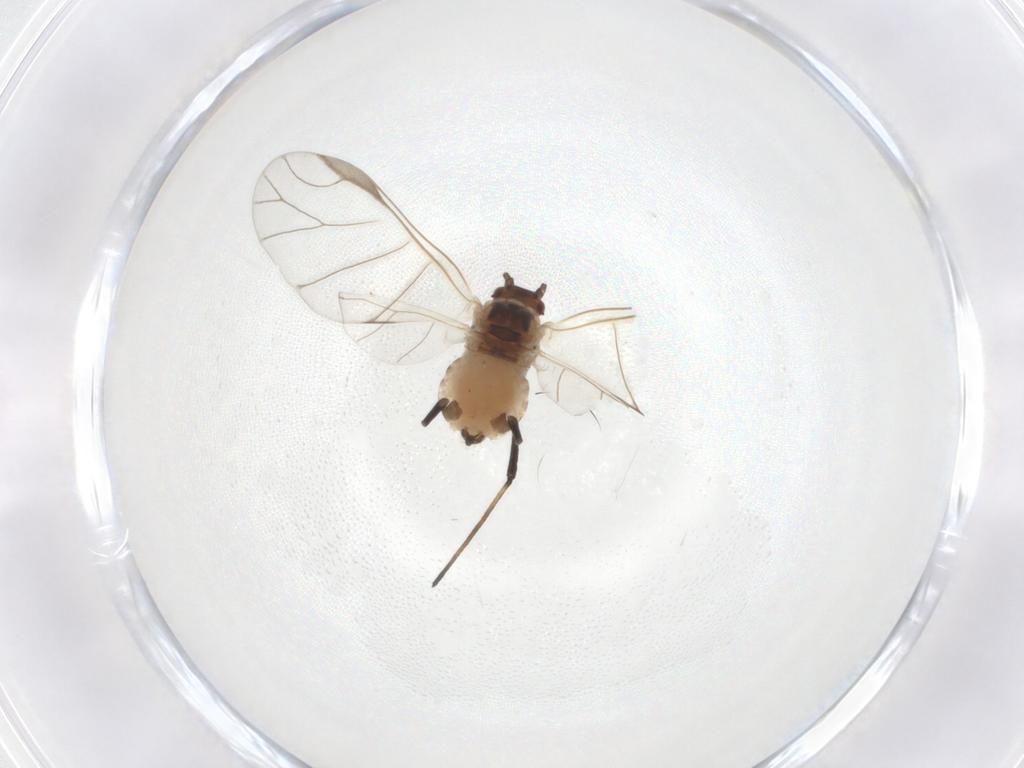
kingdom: Animalia
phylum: Arthropoda
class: Insecta
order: Hemiptera
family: Aphididae
